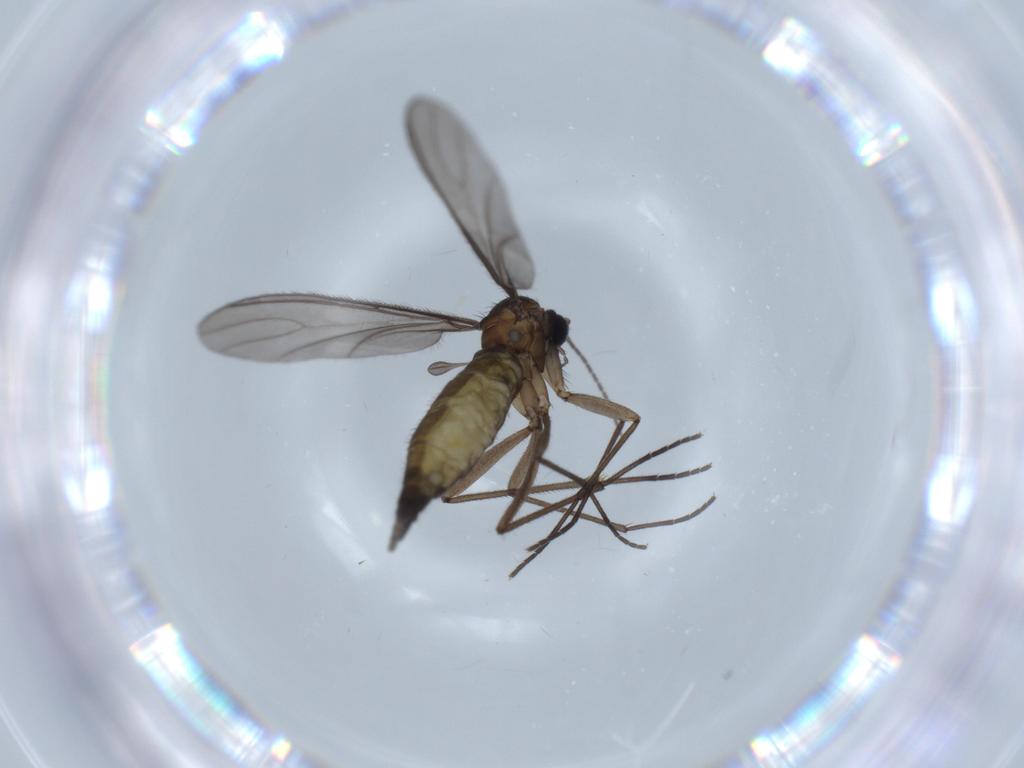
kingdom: Animalia
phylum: Arthropoda
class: Insecta
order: Diptera
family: Sciaridae
